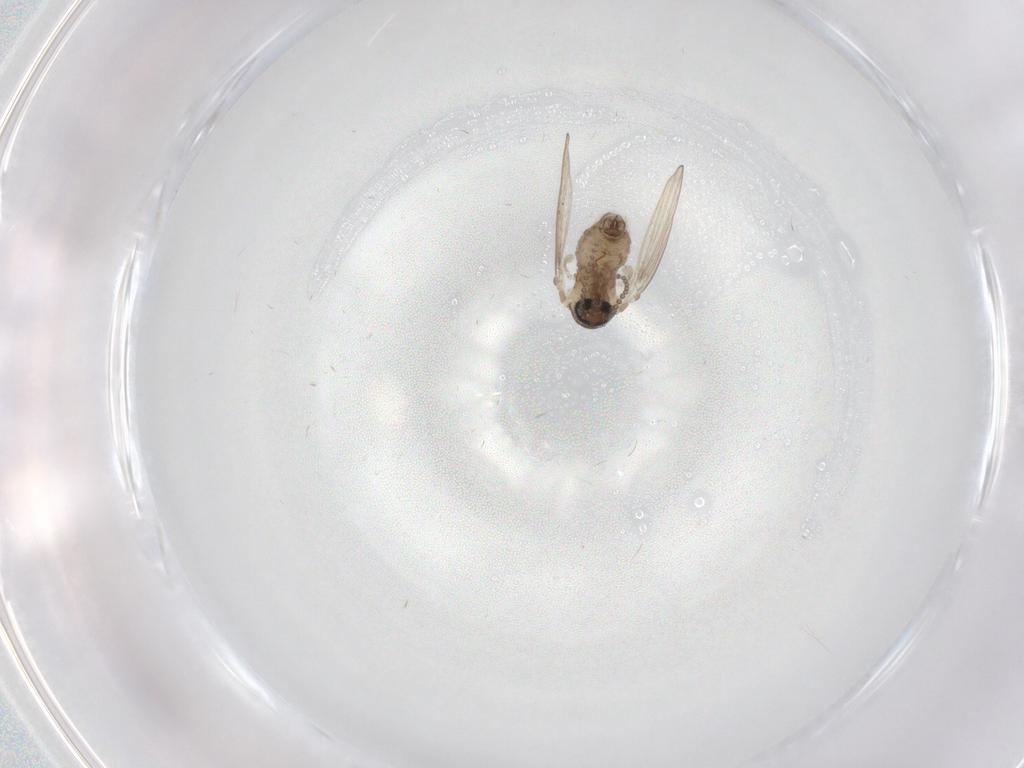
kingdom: Animalia
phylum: Arthropoda
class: Insecta
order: Diptera
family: Psychodidae
